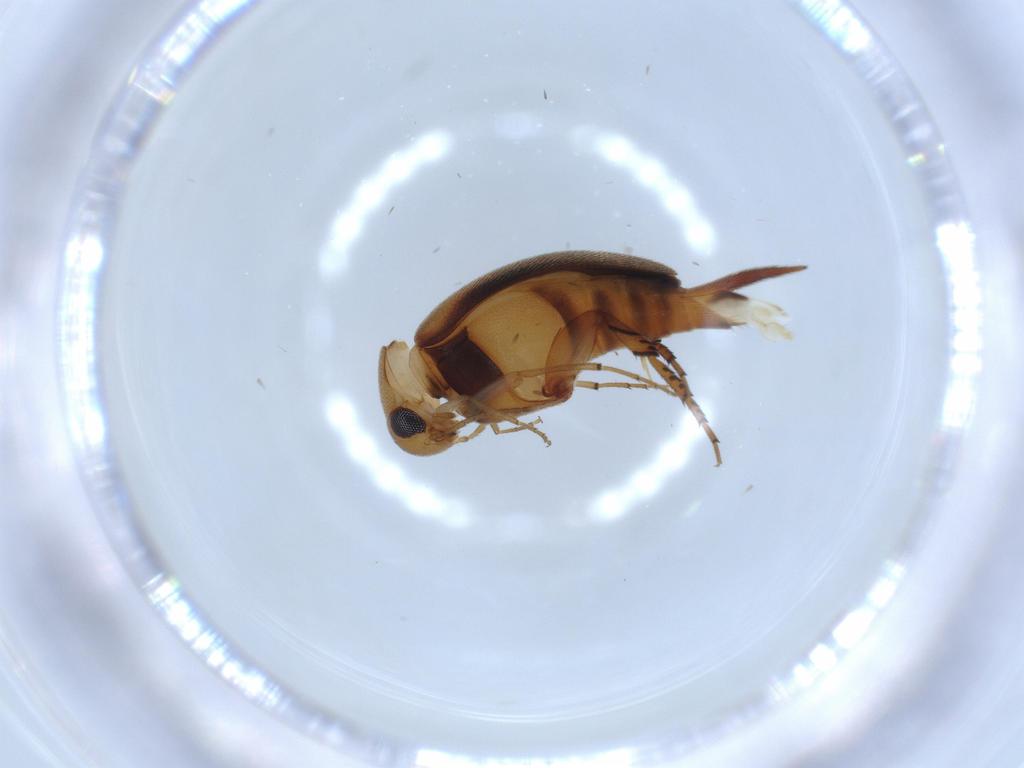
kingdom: Animalia
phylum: Arthropoda
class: Insecta
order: Coleoptera
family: Mordellidae
